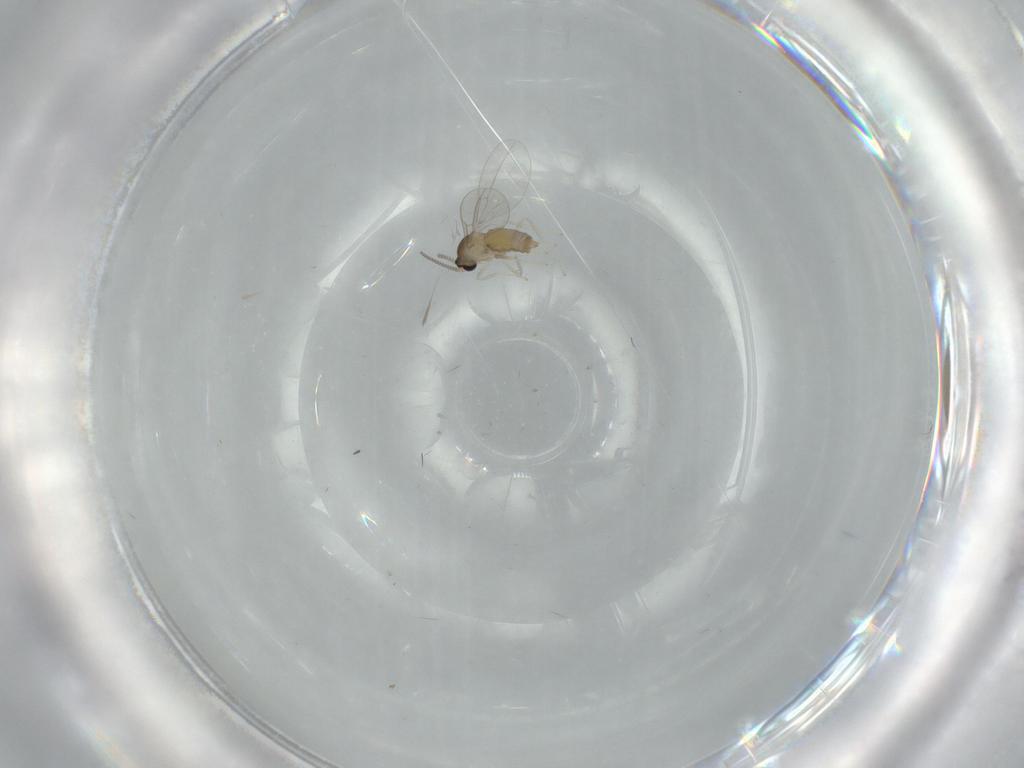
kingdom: Animalia
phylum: Arthropoda
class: Insecta
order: Diptera
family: Cecidomyiidae
